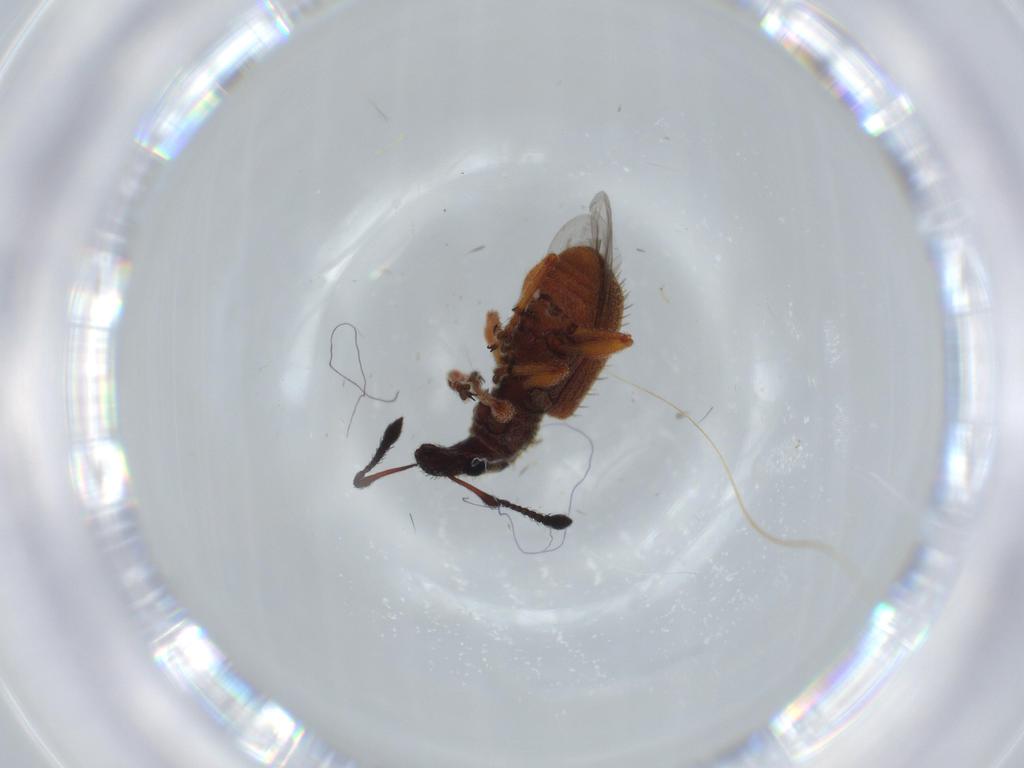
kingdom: Animalia
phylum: Arthropoda
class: Insecta
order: Coleoptera
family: Curculionidae
